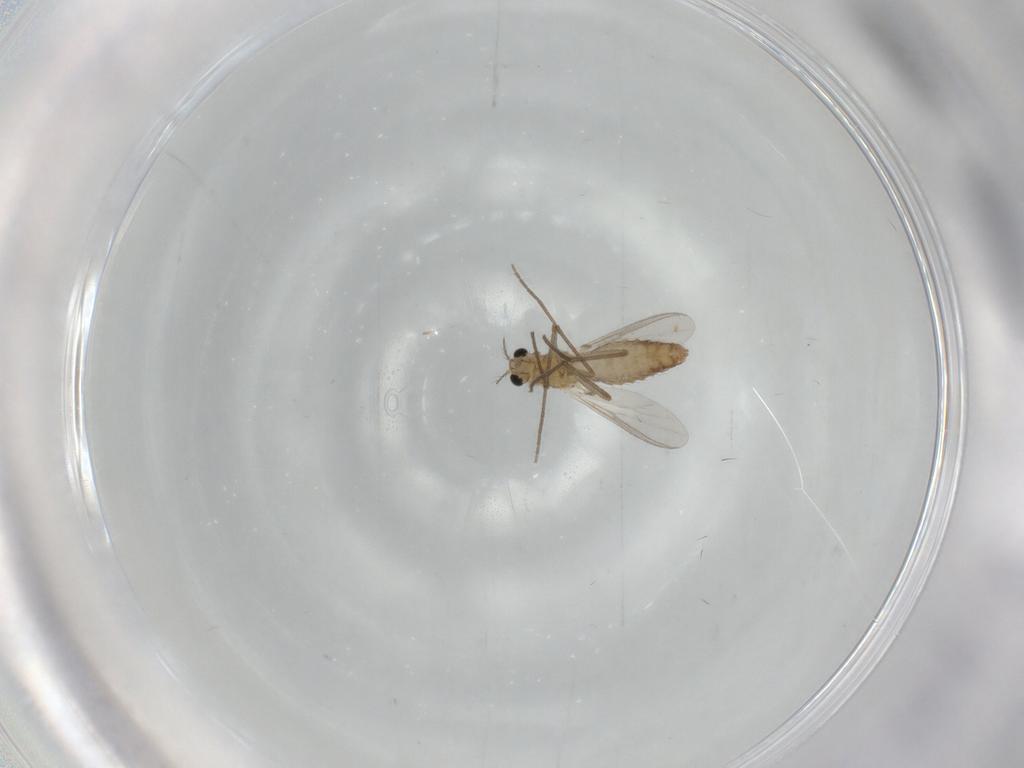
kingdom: Animalia
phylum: Arthropoda
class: Insecta
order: Diptera
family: Chironomidae
